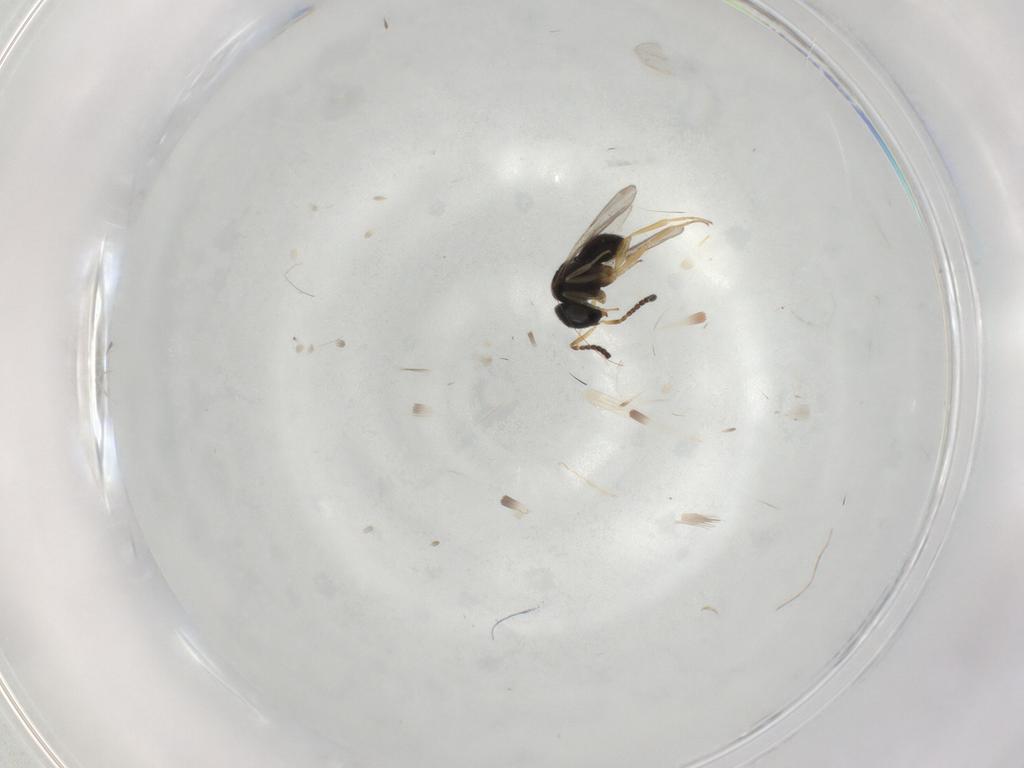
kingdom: Animalia
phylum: Arthropoda
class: Insecta
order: Hymenoptera
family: Scelionidae
